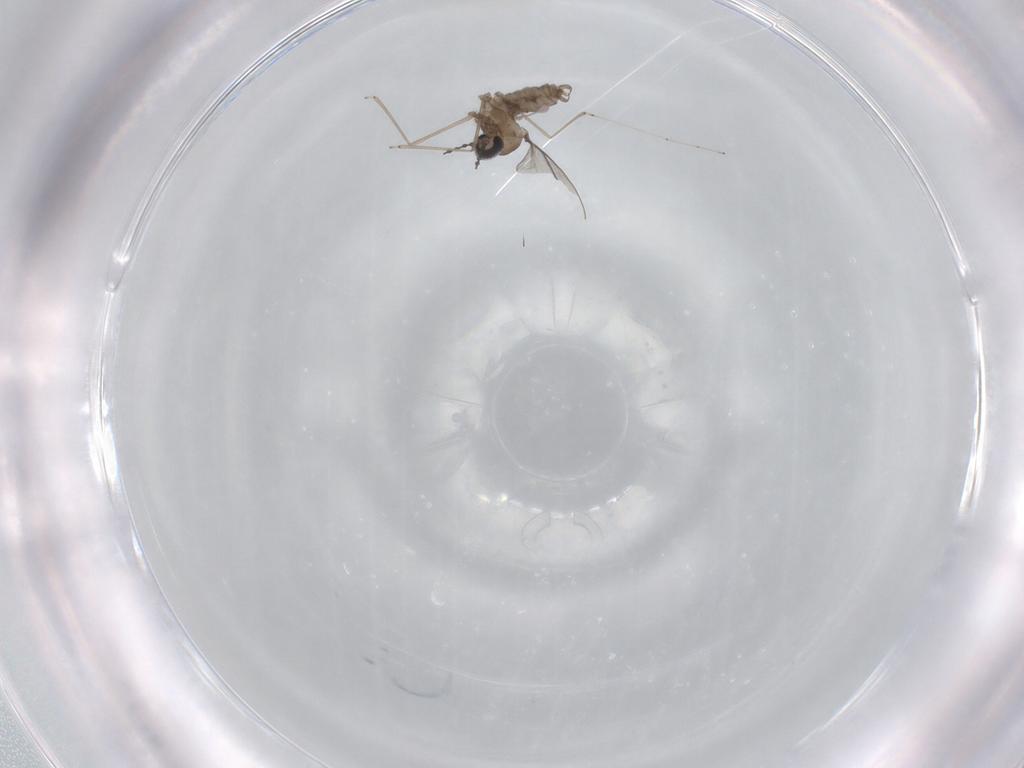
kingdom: Animalia
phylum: Arthropoda
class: Insecta
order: Diptera
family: Cecidomyiidae
